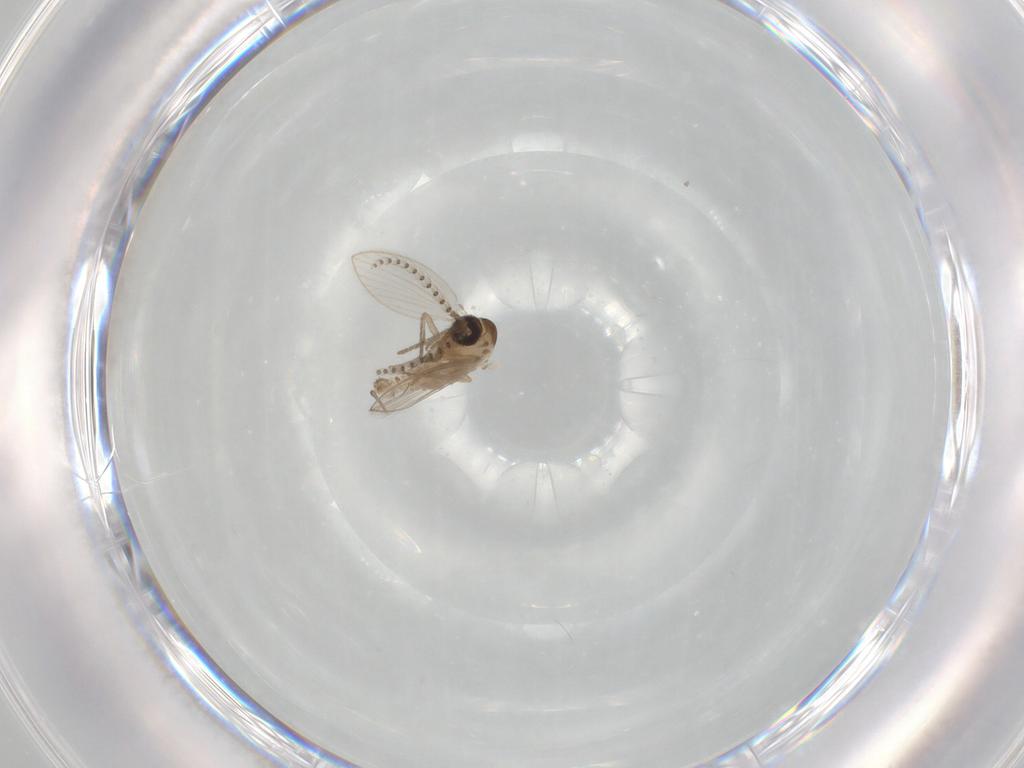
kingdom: Animalia
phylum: Arthropoda
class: Insecta
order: Diptera
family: Psychodidae
